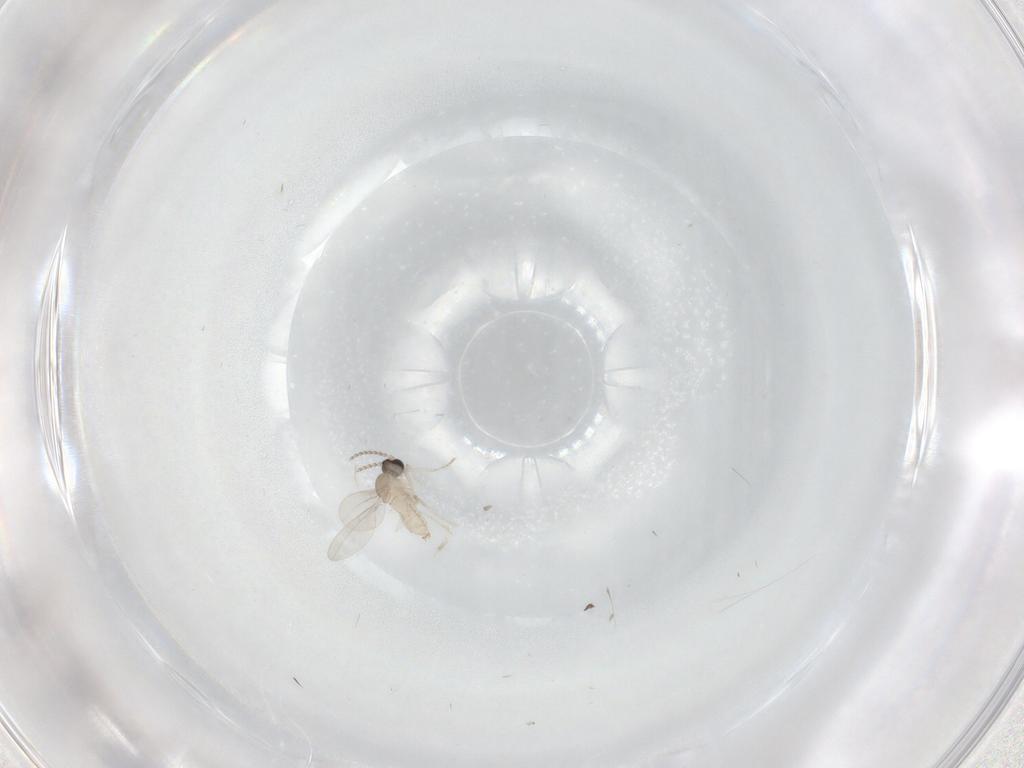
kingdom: Animalia
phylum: Arthropoda
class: Insecta
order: Diptera
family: Cecidomyiidae
